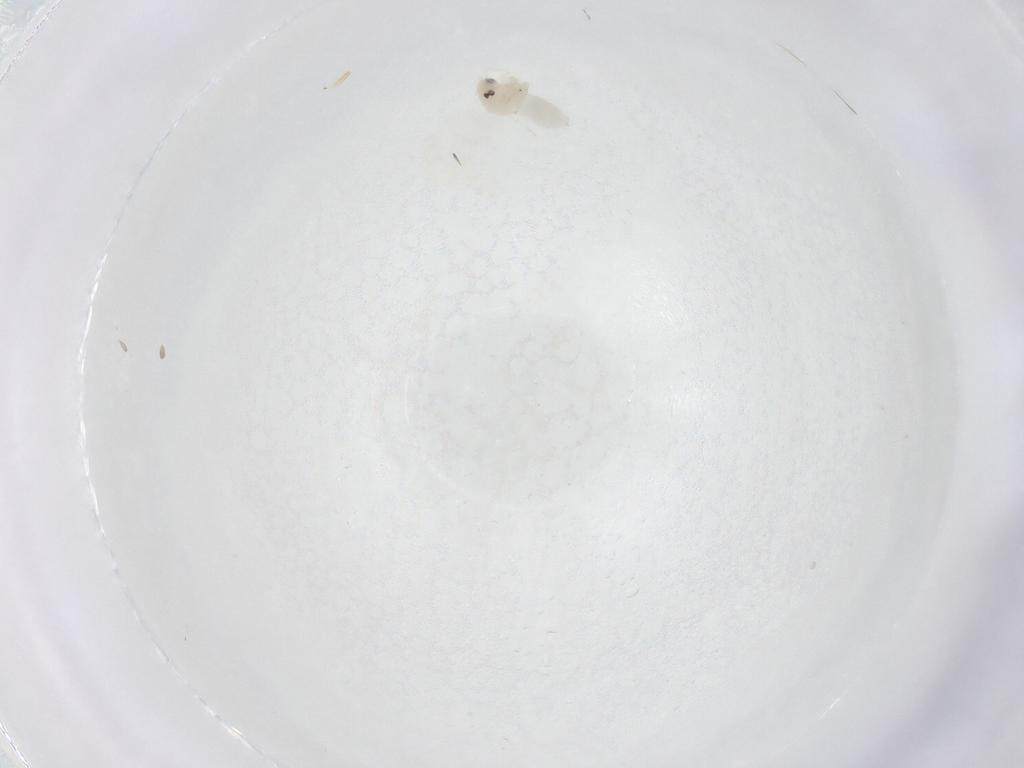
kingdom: Animalia
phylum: Arthropoda
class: Insecta
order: Hemiptera
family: Aleyrodidae
